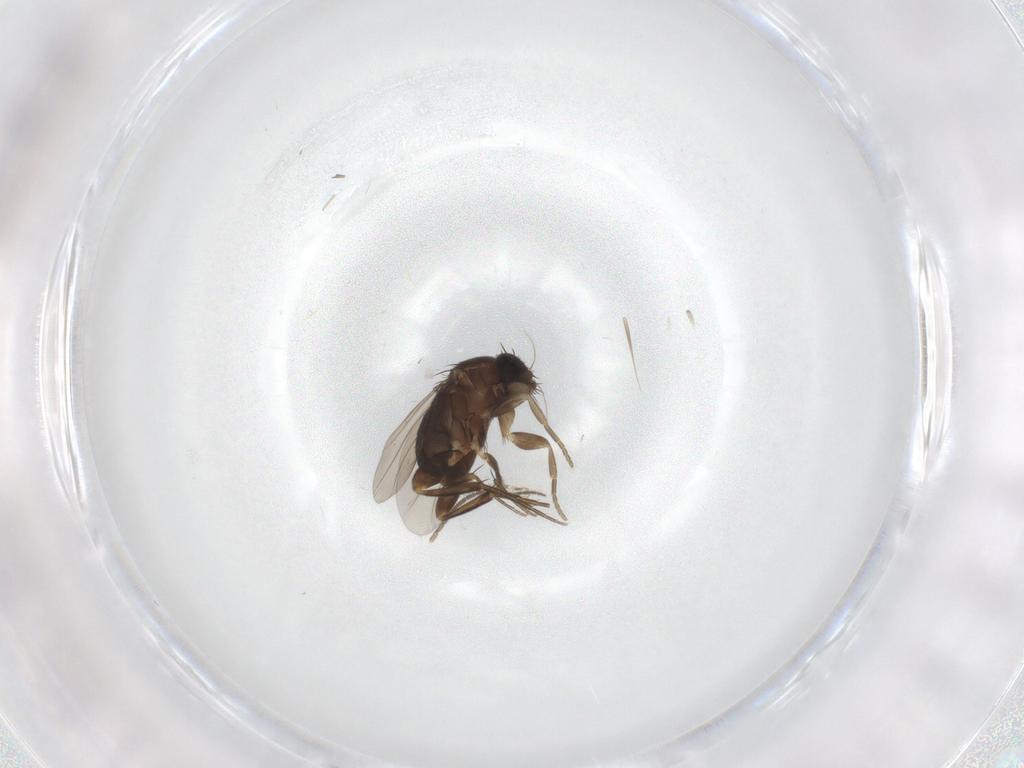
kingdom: Animalia
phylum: Arthropoda
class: Insecta
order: Diptera
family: Phoridae
